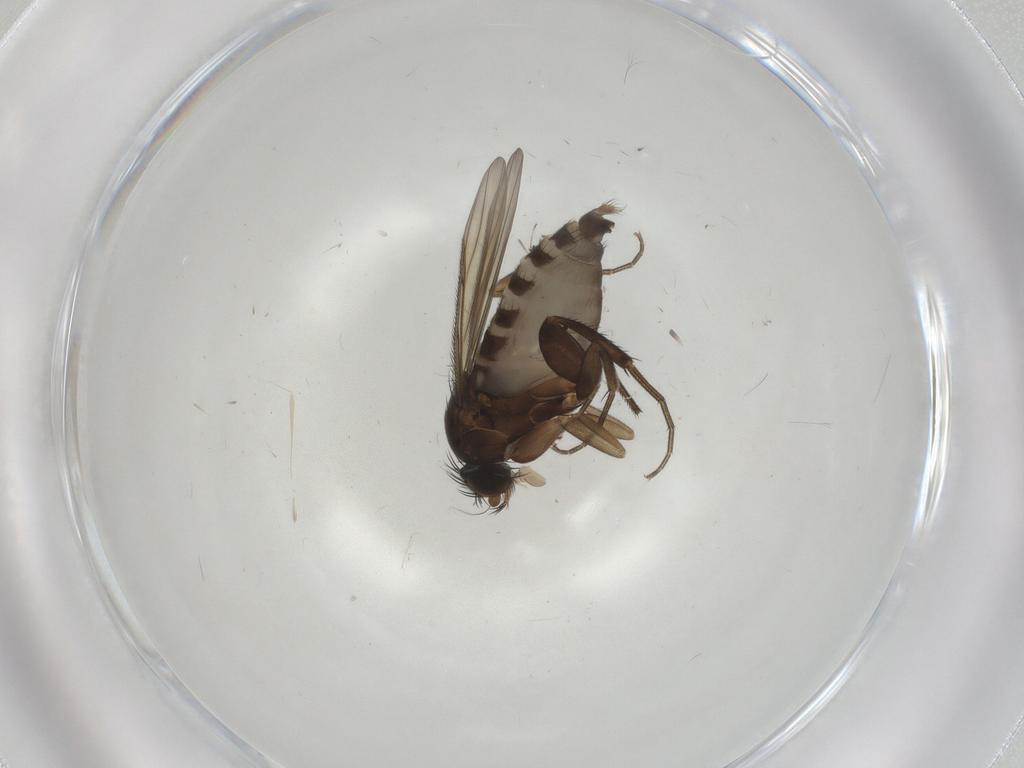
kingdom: Animalia
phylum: Arthropoda
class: Insecta
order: Diptera
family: Phoridae
